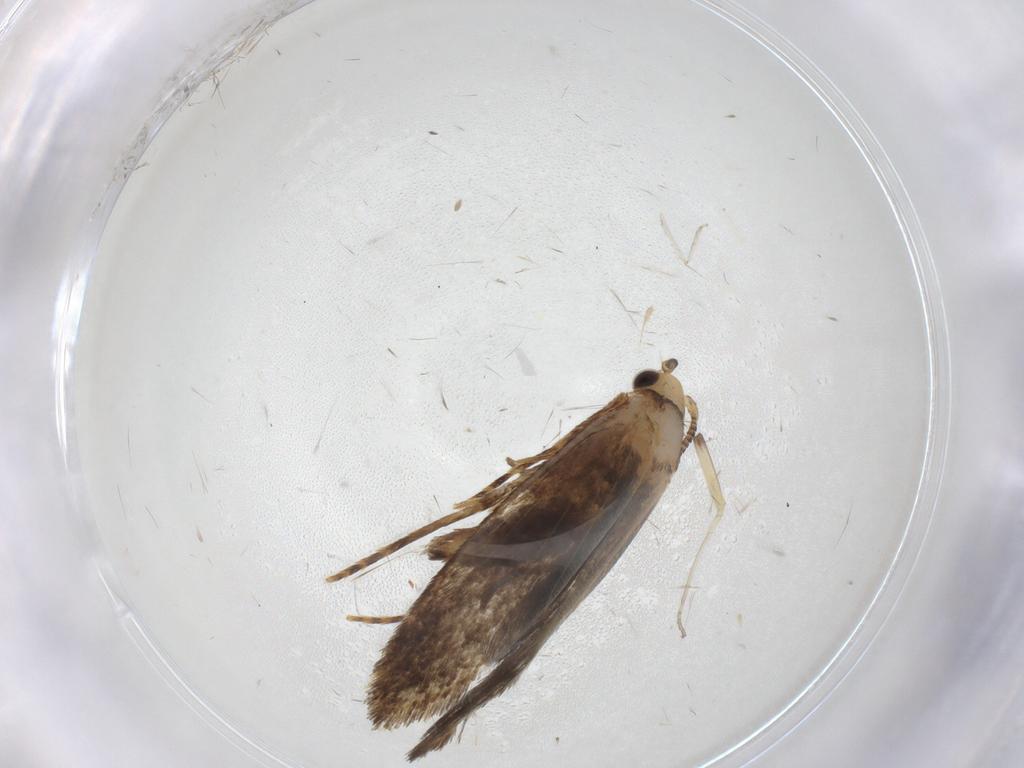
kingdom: Animalia
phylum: Arthropoda
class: Insecta
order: Lepidoptera
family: Tineidae
